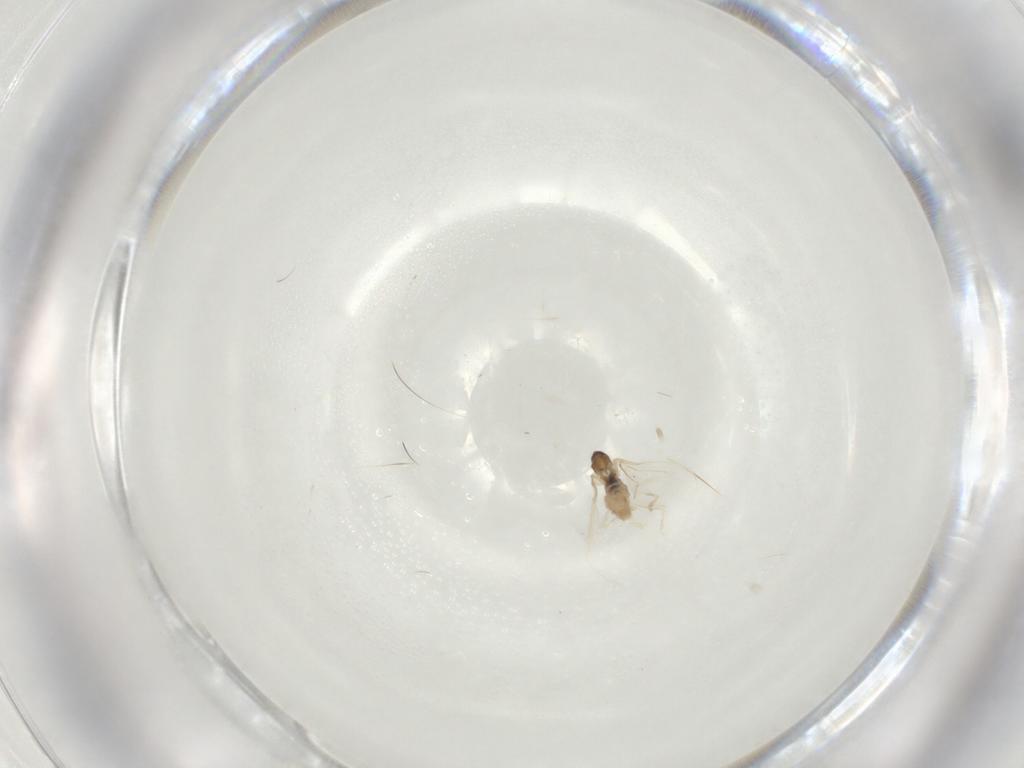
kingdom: Animalia
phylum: Arthropoda
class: Insecta
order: Diptera
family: Cecidomyiidae
